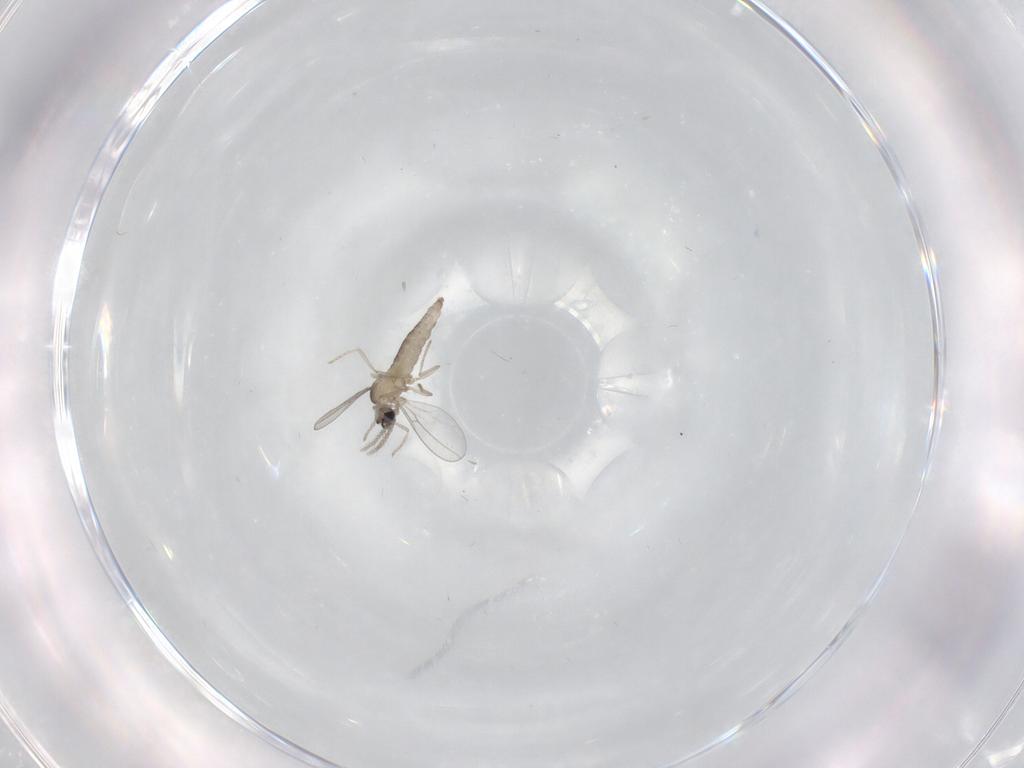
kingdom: Animalia
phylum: Arthropoda
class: Insecta
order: Diptera
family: Cecidomyiidae
